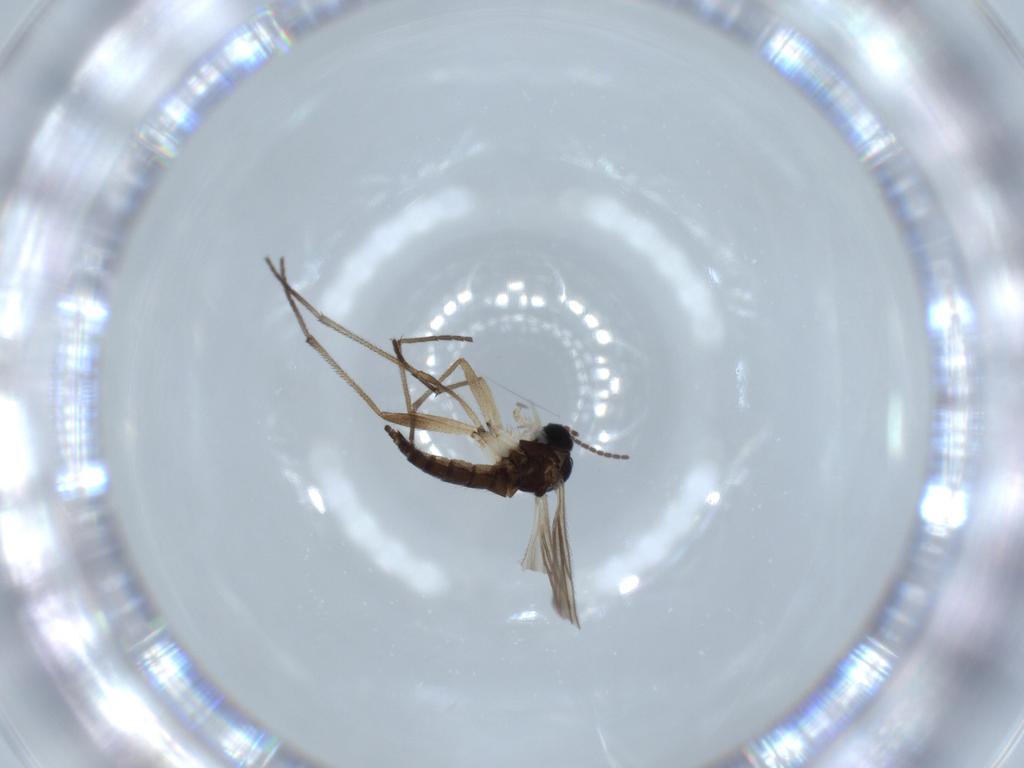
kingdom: Animalia
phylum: Arthropoda
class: Insecta
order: Diptera
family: Sciaridae
